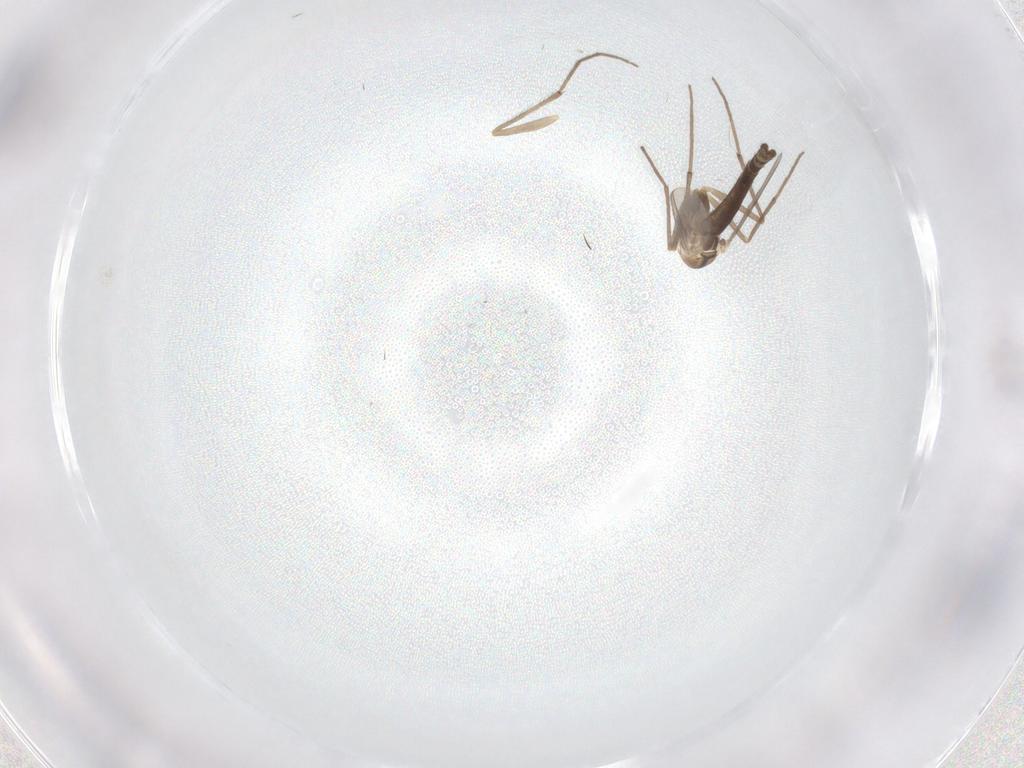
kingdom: Animalia
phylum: Arthropoda
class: Insecta
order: Diptera
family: Chironomidae
